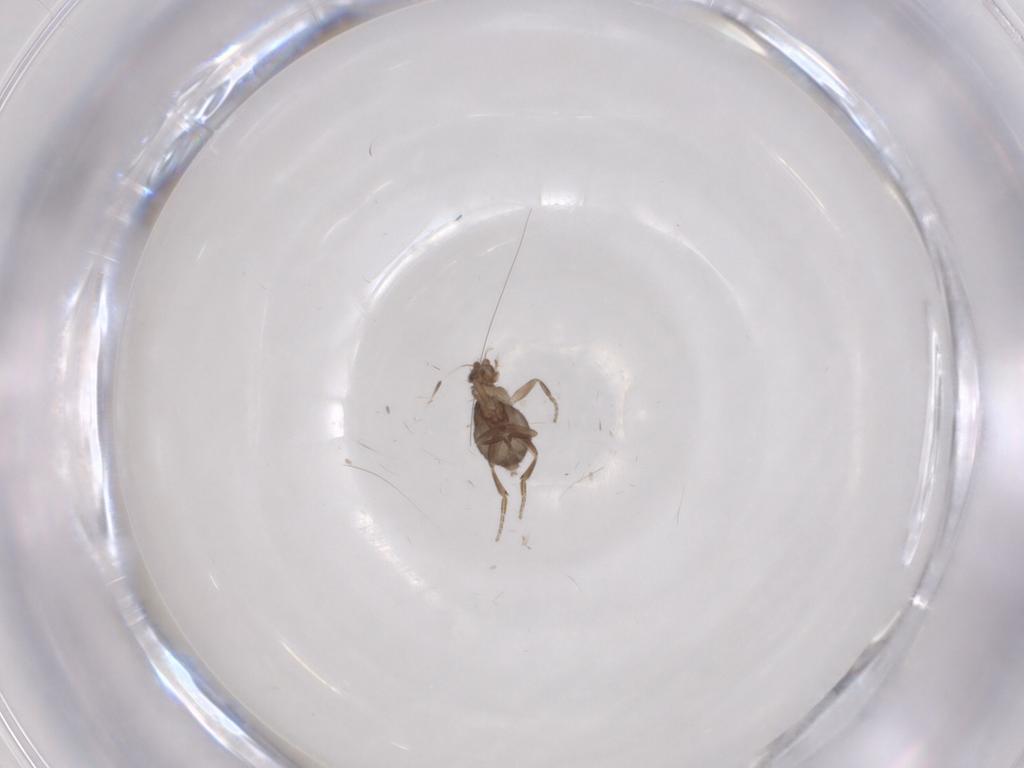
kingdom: Animalia
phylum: Arthropoda
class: Insecta
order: Diptera
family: Phoridae
